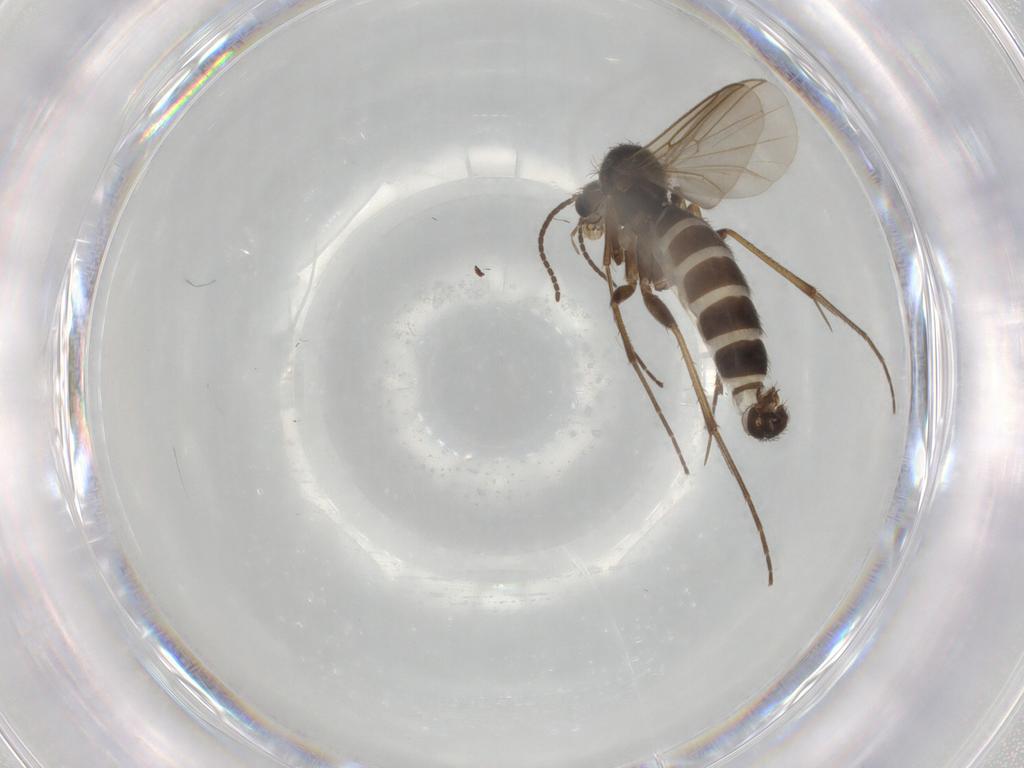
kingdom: Animalia
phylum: Arthropoda
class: Insecta
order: Diptera
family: Mycetophilidae
